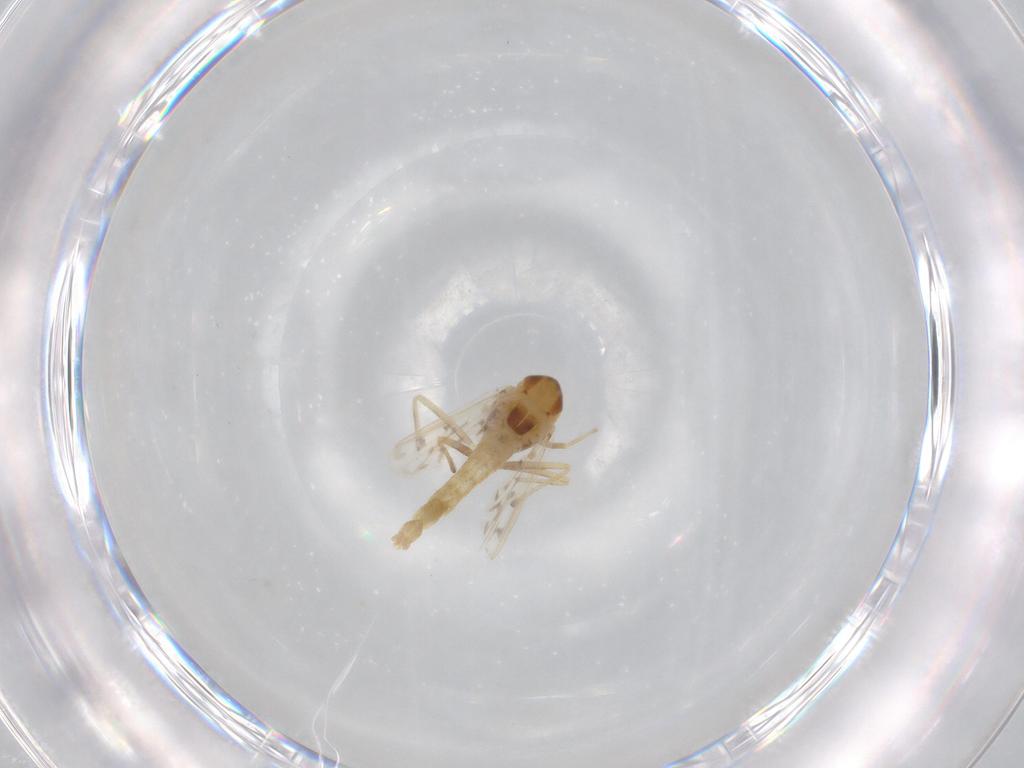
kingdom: Animalia
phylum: Arthropoda
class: Insecta
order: Diptera
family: Chironomidae
